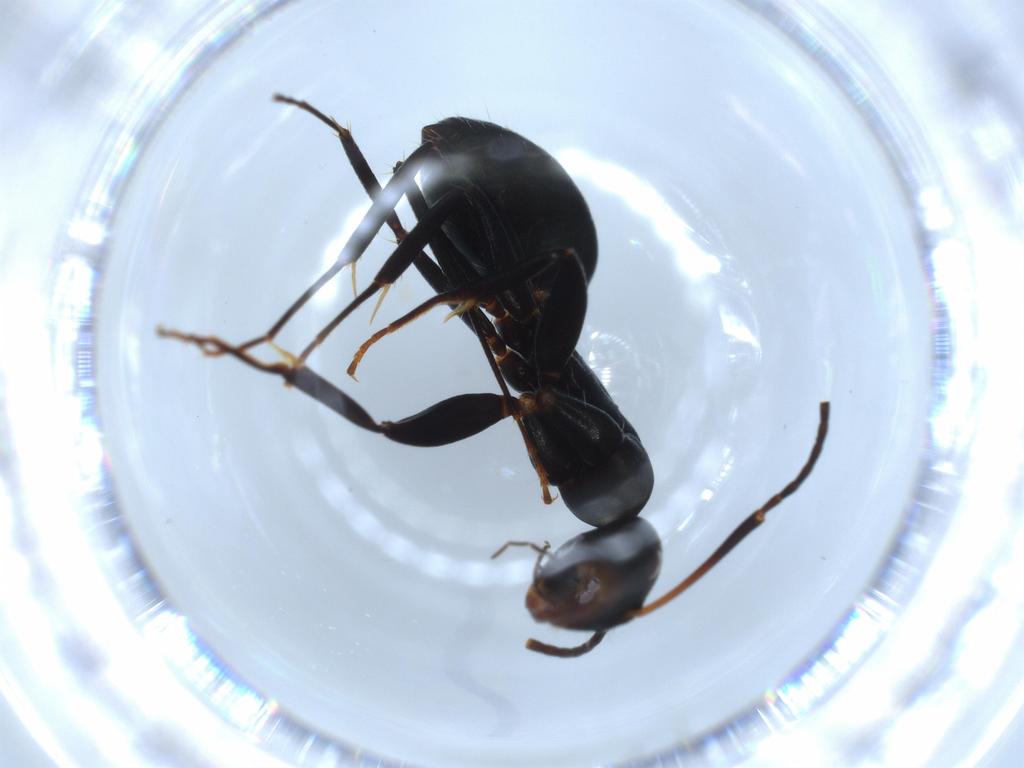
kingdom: Animalia
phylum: Arthropoda
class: Insecta
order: Hymenoptera
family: Formicidae
